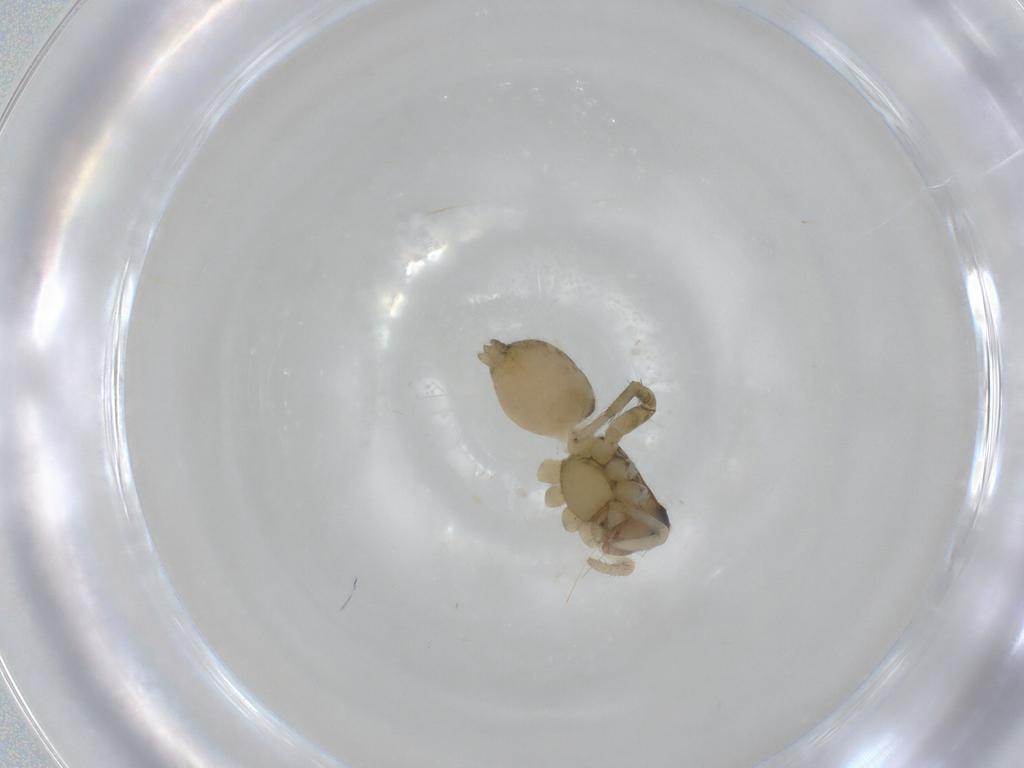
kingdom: Animalia
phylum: Arthropoda
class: Arachnida
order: Araneae
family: Lycosidae
